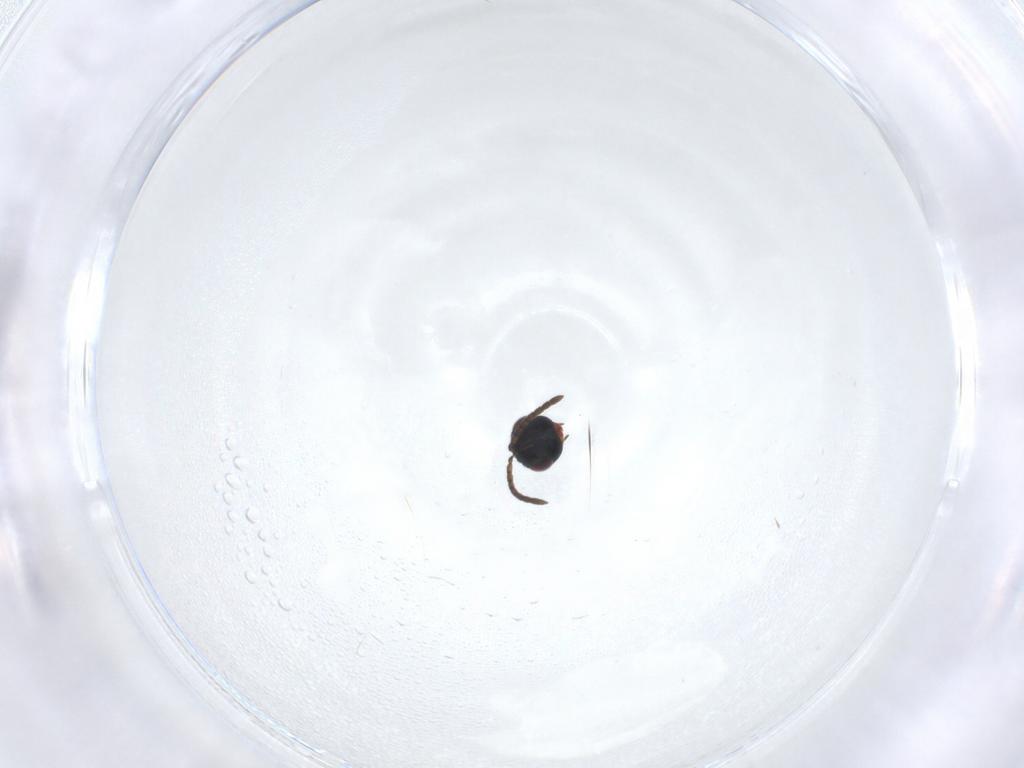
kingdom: Animalia
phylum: Arthropoda
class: Insecta
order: Hymenoptera
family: Pteromalidae
